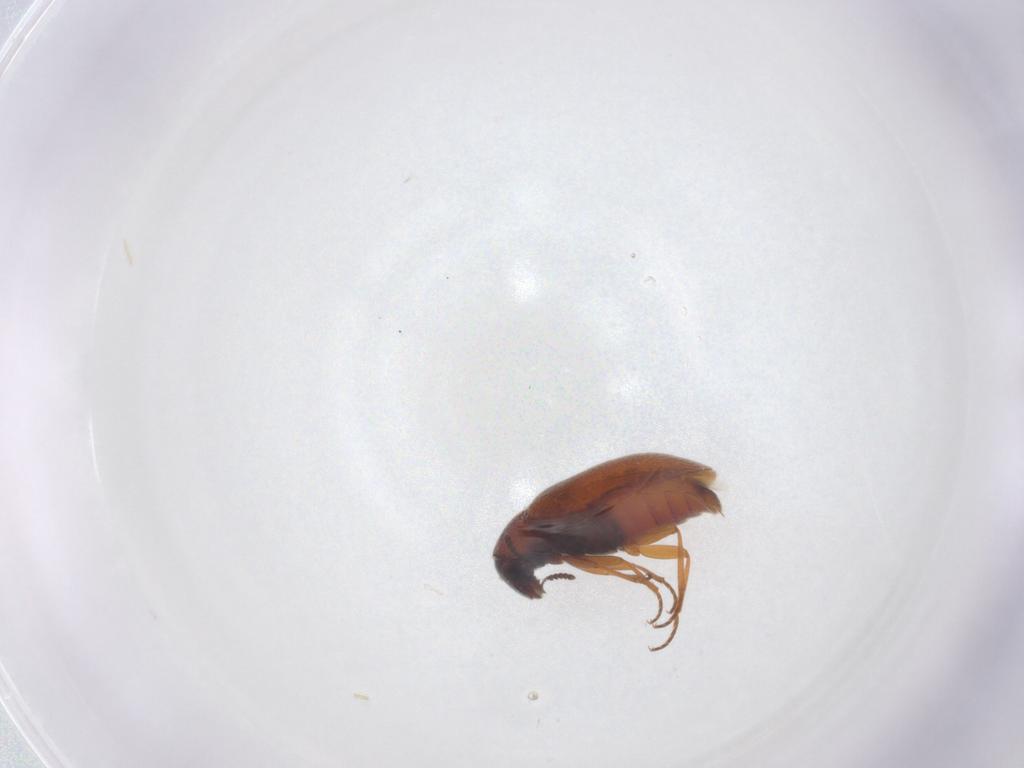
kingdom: Animalia
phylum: Arthropoda
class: Insecta
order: Coleoptera
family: Rhadalidae
